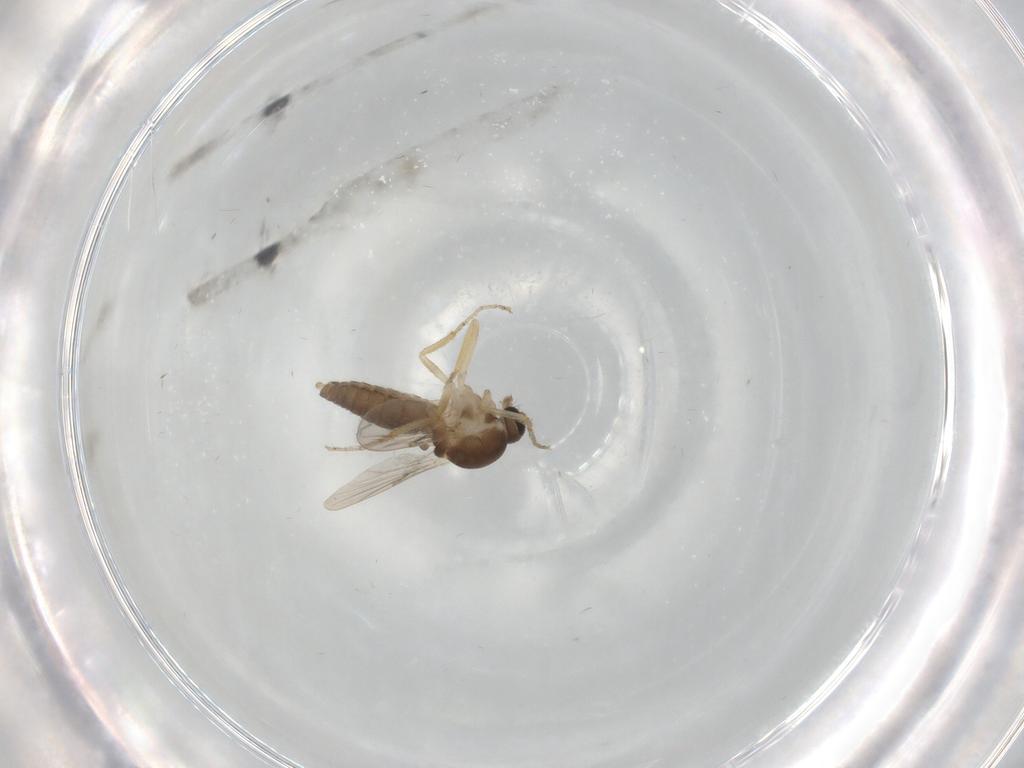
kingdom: Animalia
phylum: Arthropoda
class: Insecta
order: Diptera
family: Ceratopogonidae
